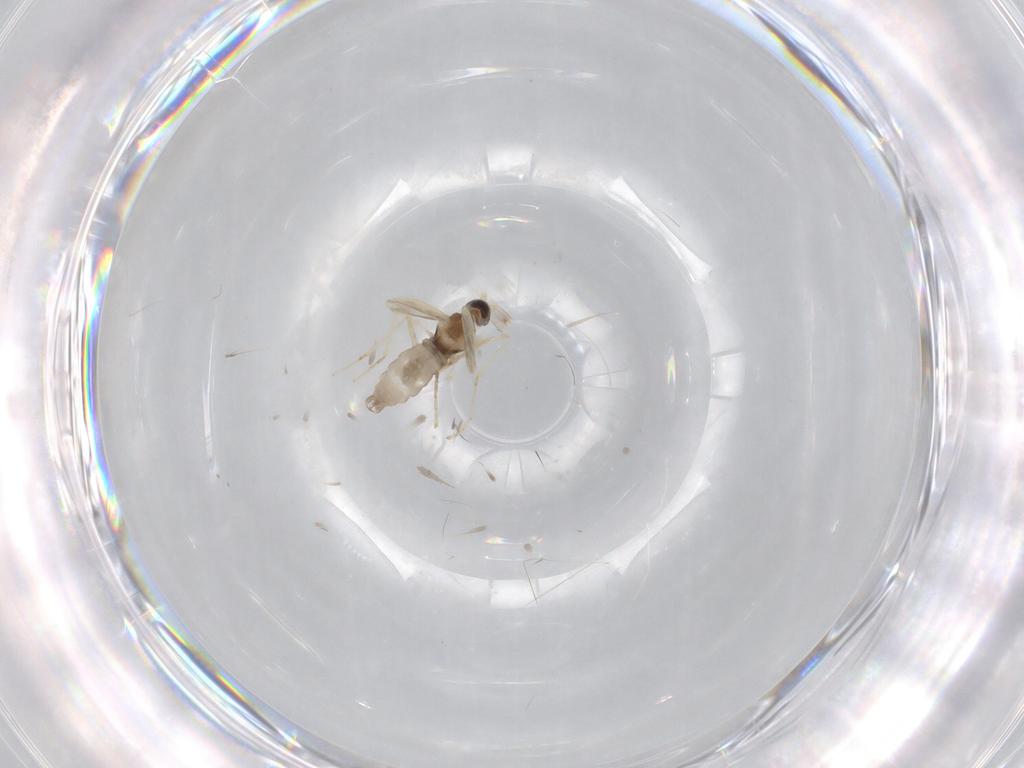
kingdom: Animalia
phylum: Arthropoda
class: Insecta
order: Diptera
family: Cecidomyiidae
